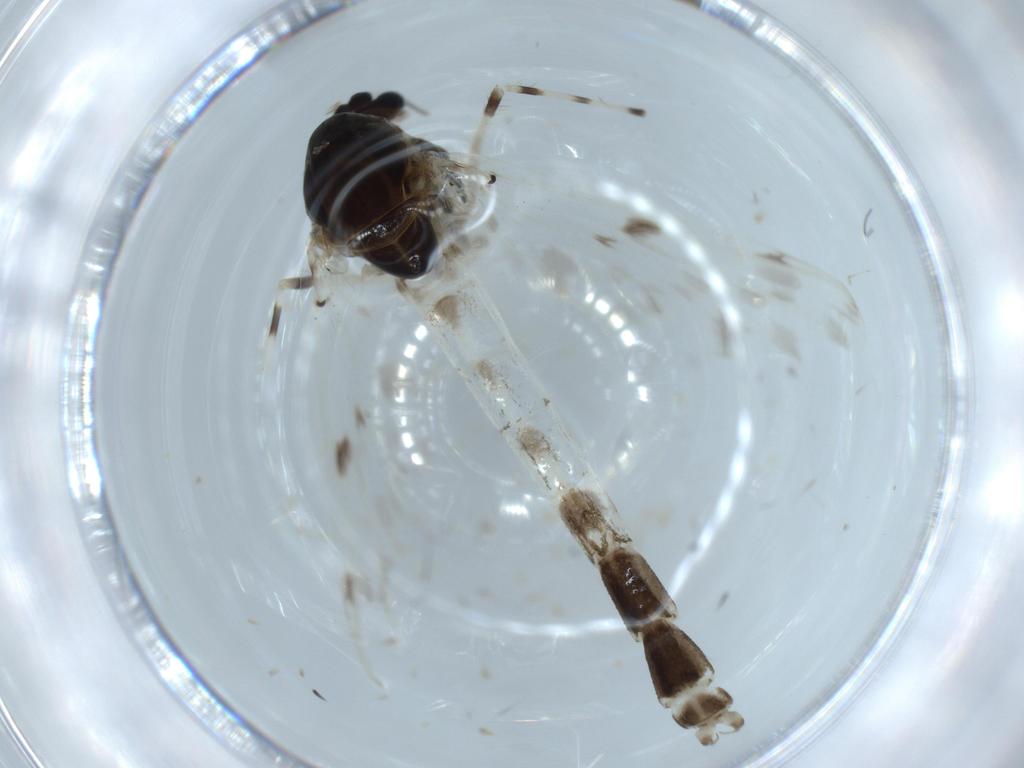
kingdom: Animalia
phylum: Arthropoda
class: Insecta
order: Diptera
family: Chironomidae
